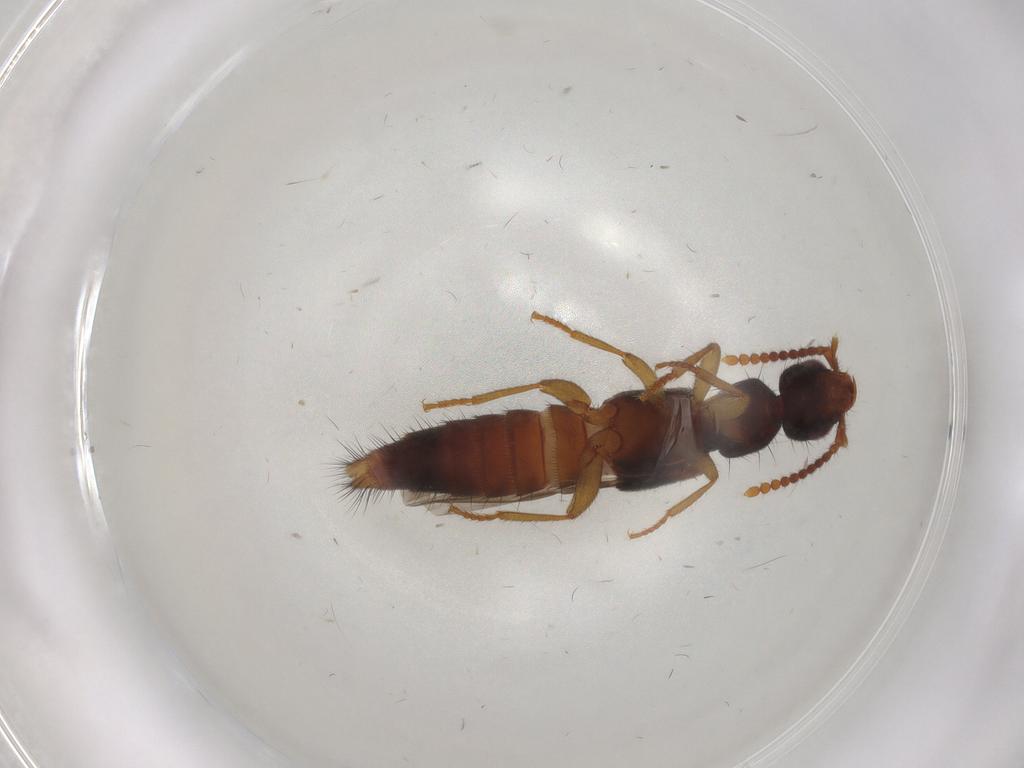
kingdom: Animalia
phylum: Arthropoda
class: Insecta
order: Coleoptera
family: Staphylinidae
